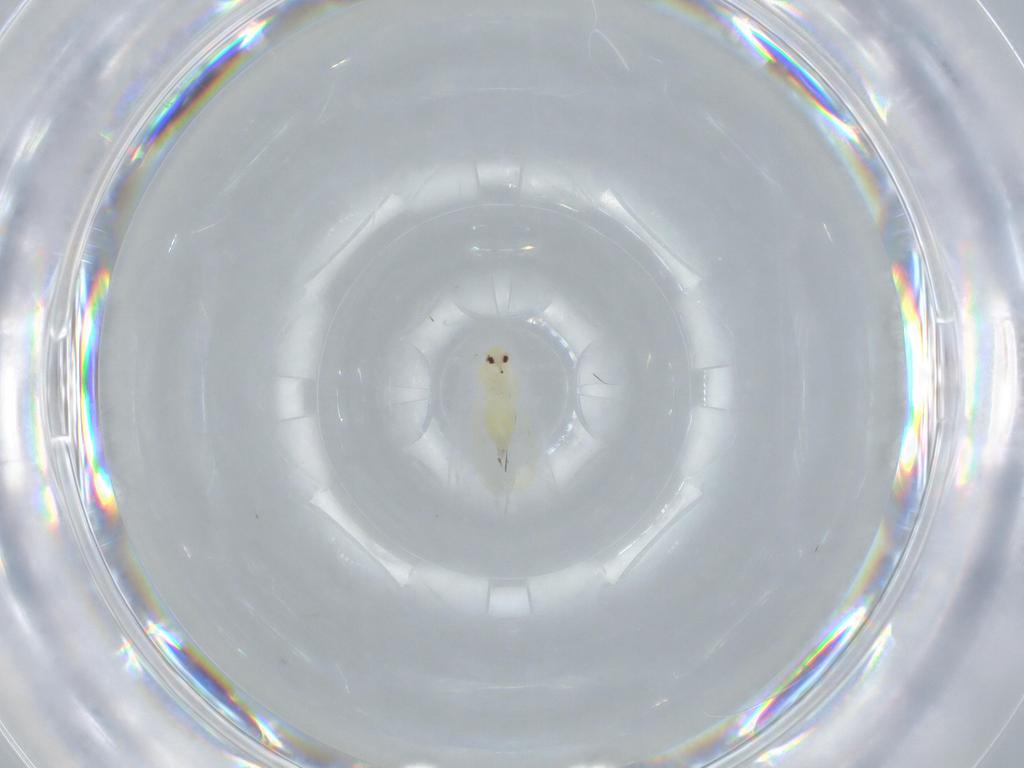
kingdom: Animalia
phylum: Arthropoda
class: Insecta
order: Hemiptera
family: Aleyrodidae
